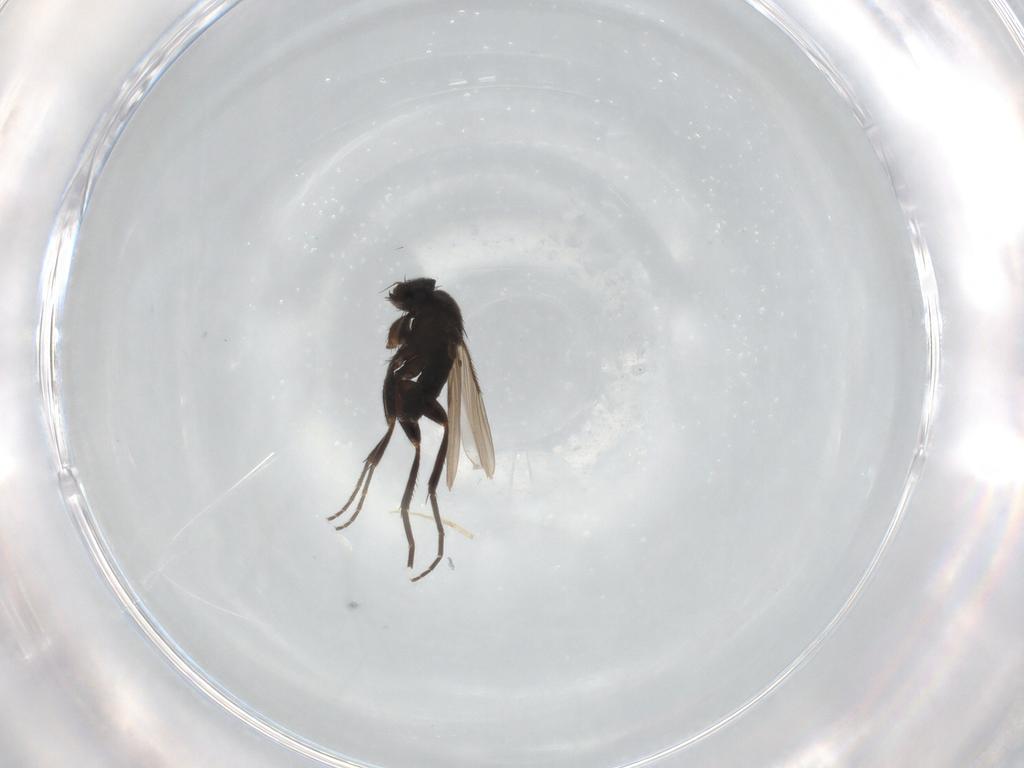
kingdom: Animalia
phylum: Arthropoda
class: Insecta
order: Diptera
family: Phoridae
